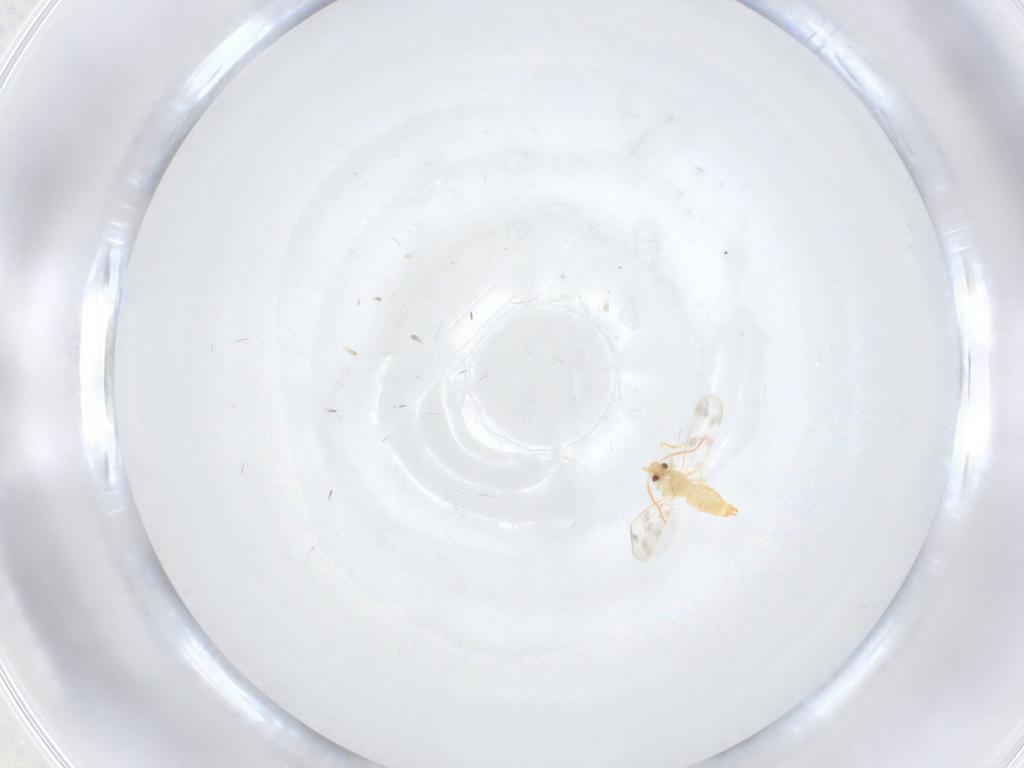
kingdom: Animalia
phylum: Arthropoda
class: Insecta
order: Hemiptera
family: Aleyrodidae
